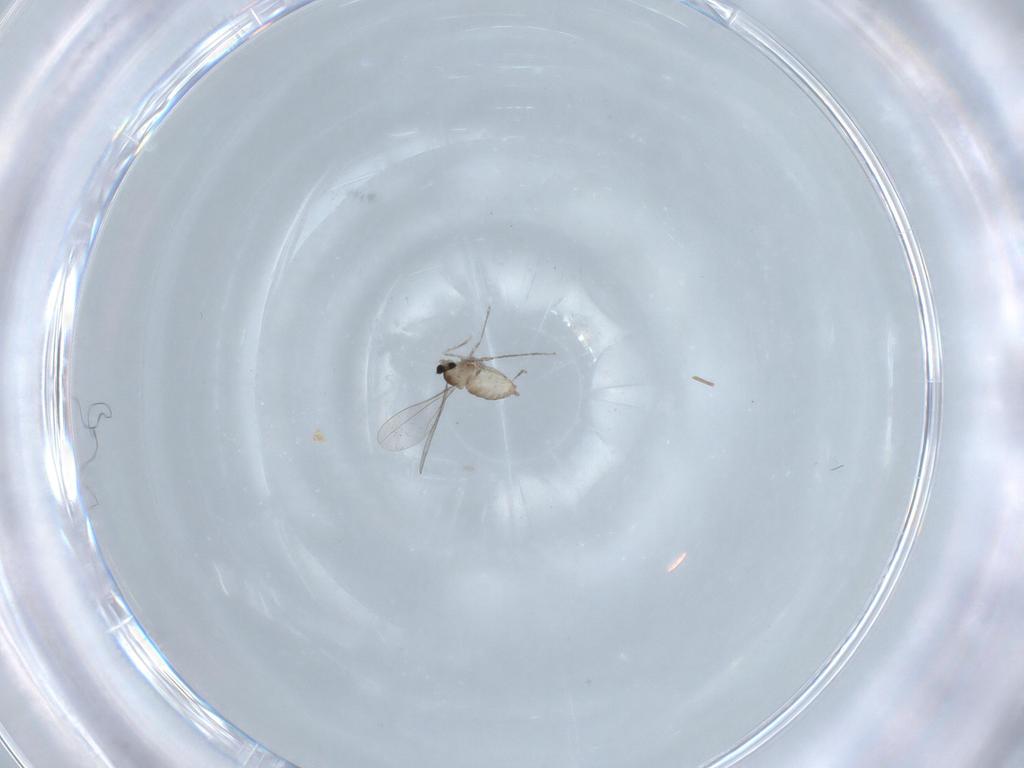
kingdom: Animalia
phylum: Arthropoda
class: Insecta
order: Diptera
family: Cecidomyiidae
